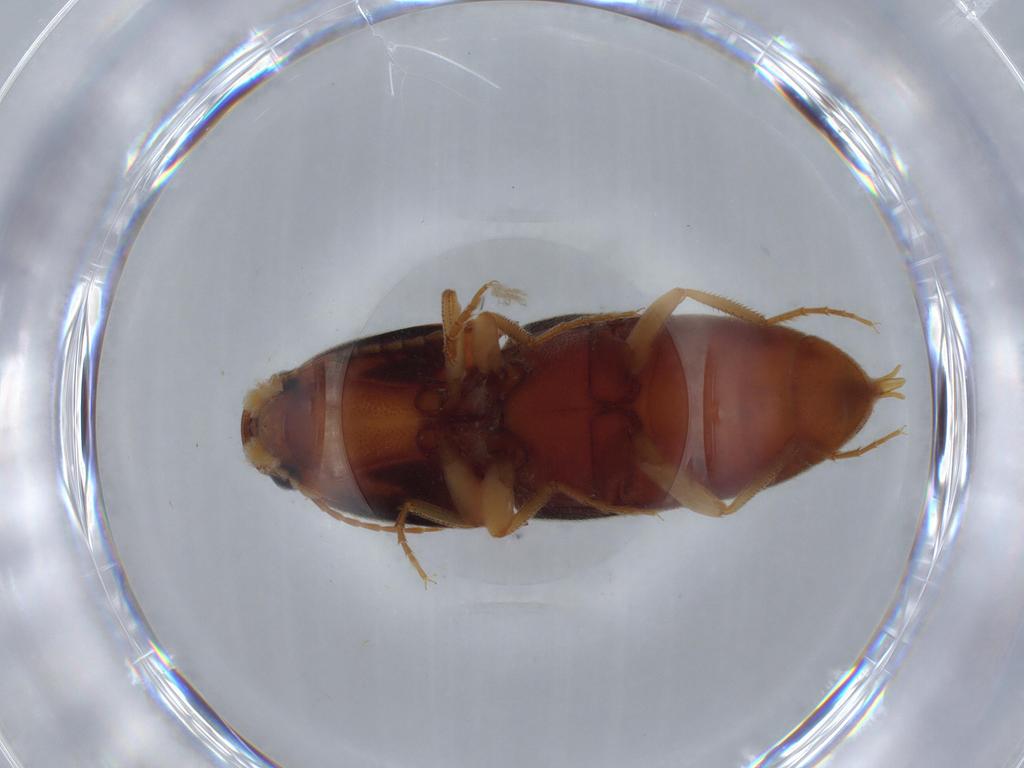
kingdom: Animalia
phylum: Arthropoda
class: Insecta
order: Coleoptera
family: Elateridae
